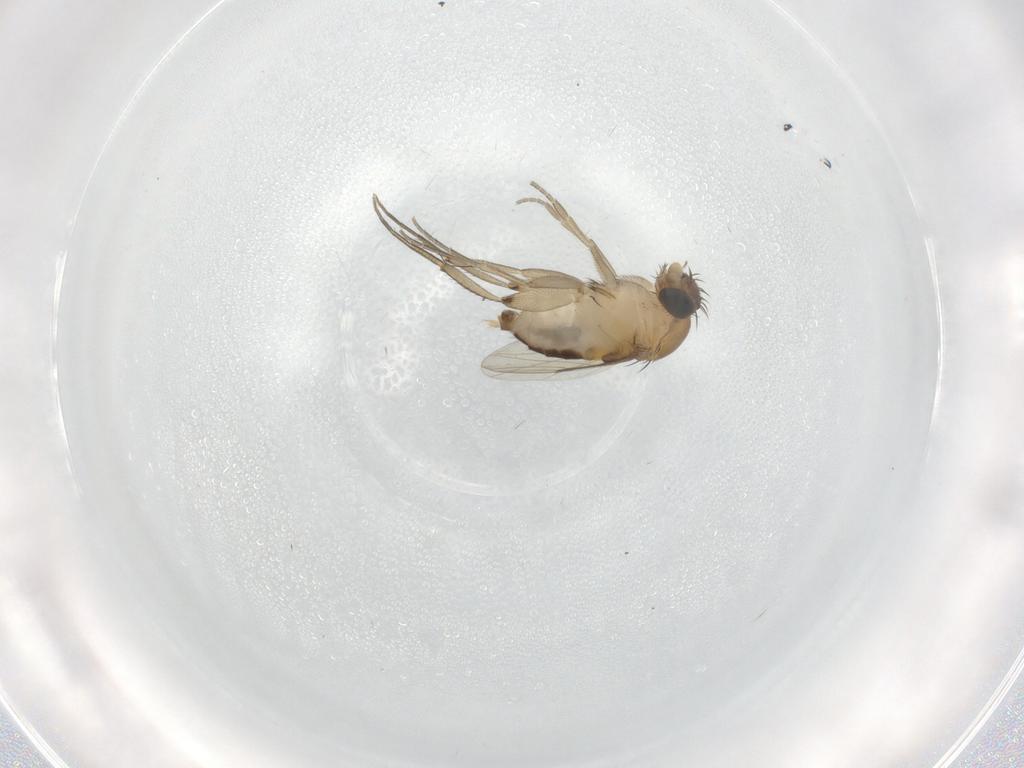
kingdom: Animalia
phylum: Arthropoda
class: Insecta
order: Diptera
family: Phoridae
